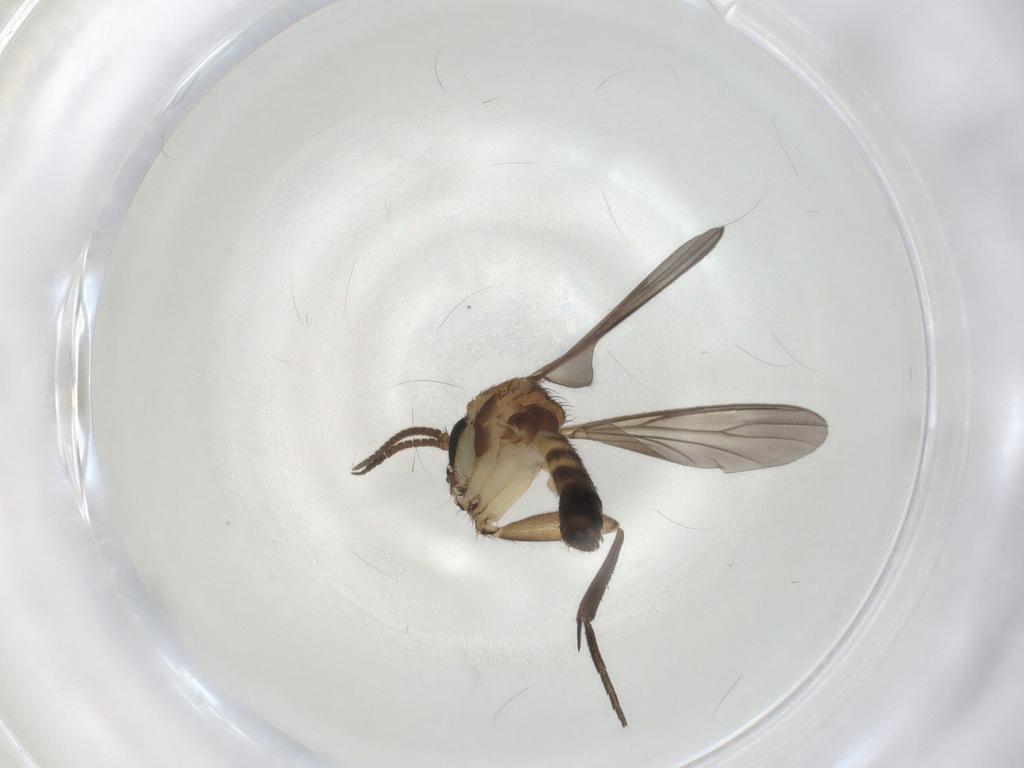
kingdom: Animalia
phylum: Arthropoda
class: Insecta
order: Diptera
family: Mycetophilidae
